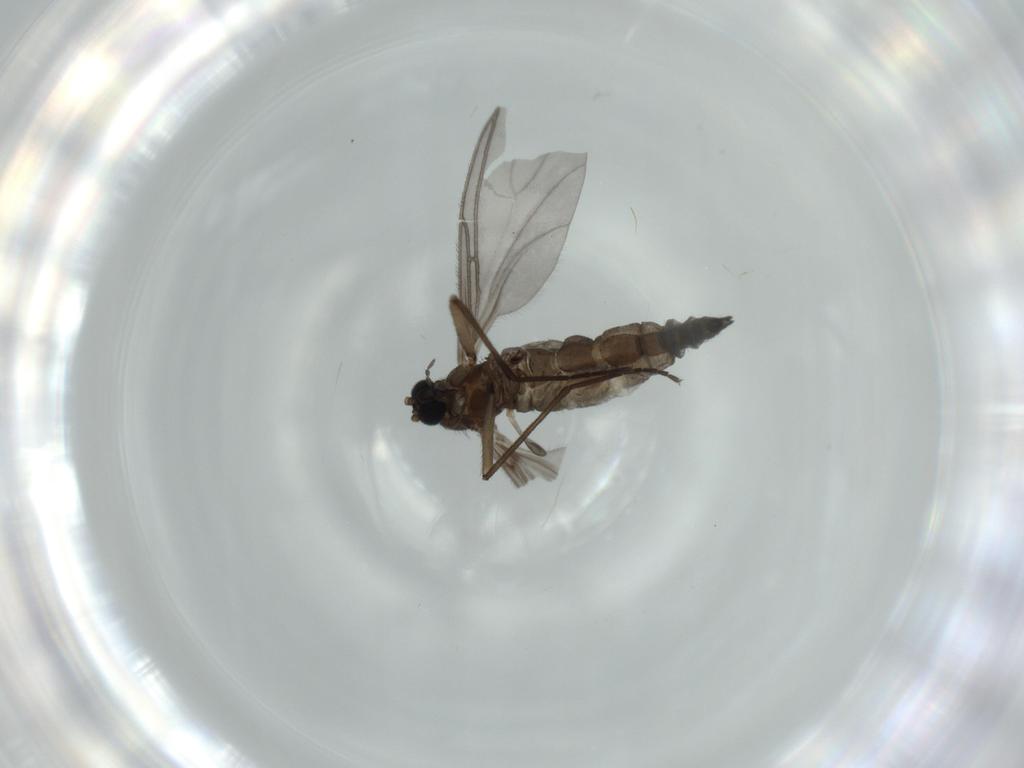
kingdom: Animalia
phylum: Arthropoda
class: Insecta
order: Diptera
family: Sciaridae
